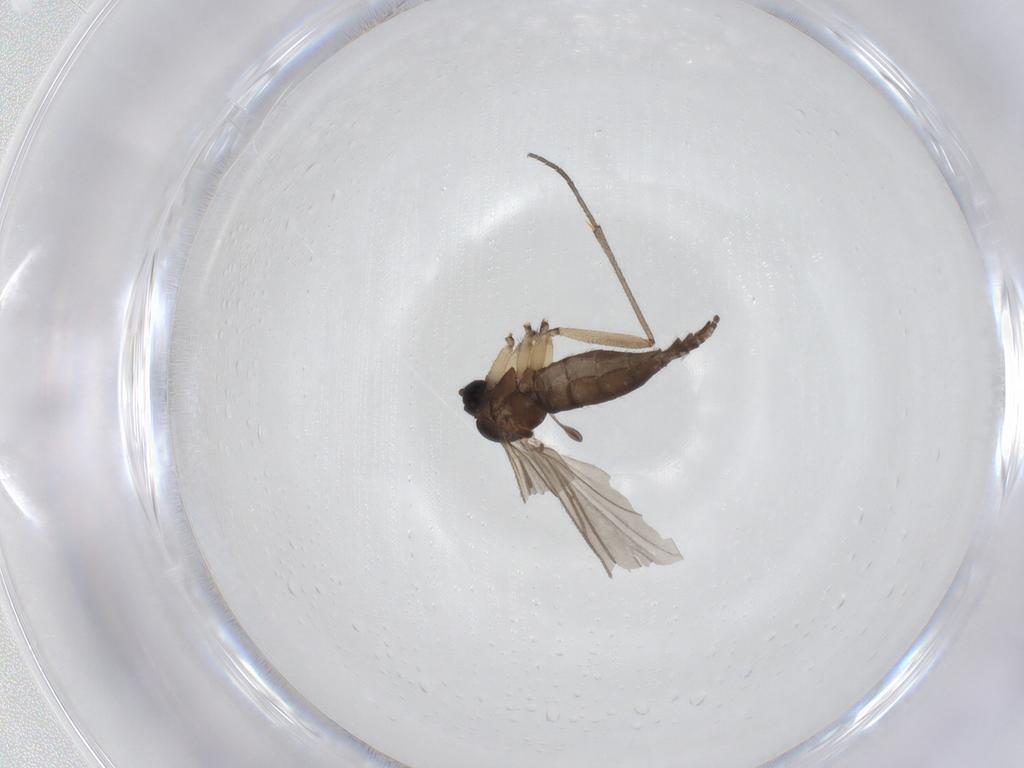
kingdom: Animalia
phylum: Arthropoda
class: Insecta
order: Diptera
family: Sciaridae
